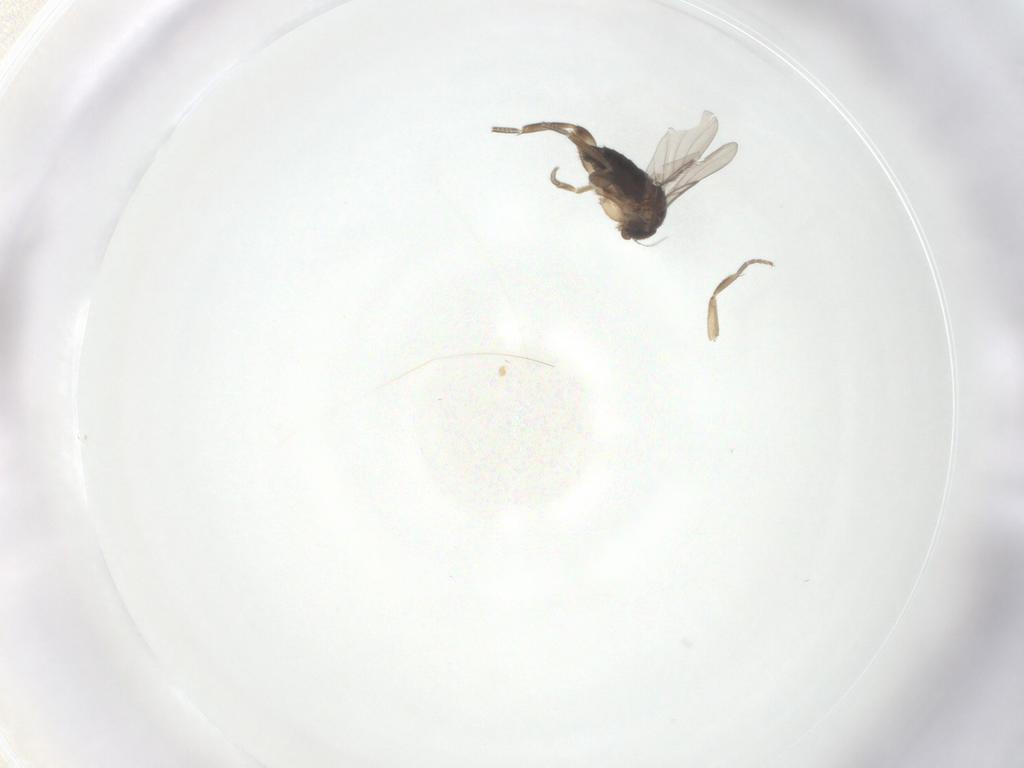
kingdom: Animalia
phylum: Arthropoda
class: Insecta
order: Diptera
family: Phoridae
